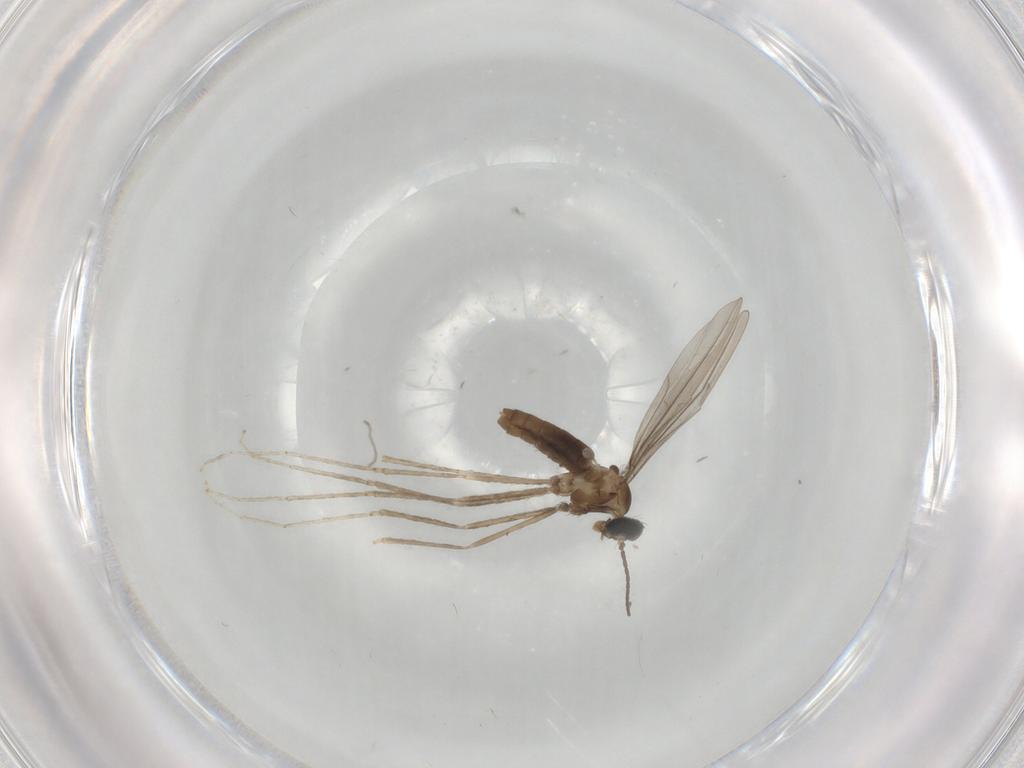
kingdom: Animalia
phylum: Arthropoda
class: Insecta
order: Diptera
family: Cecidomyiidae
